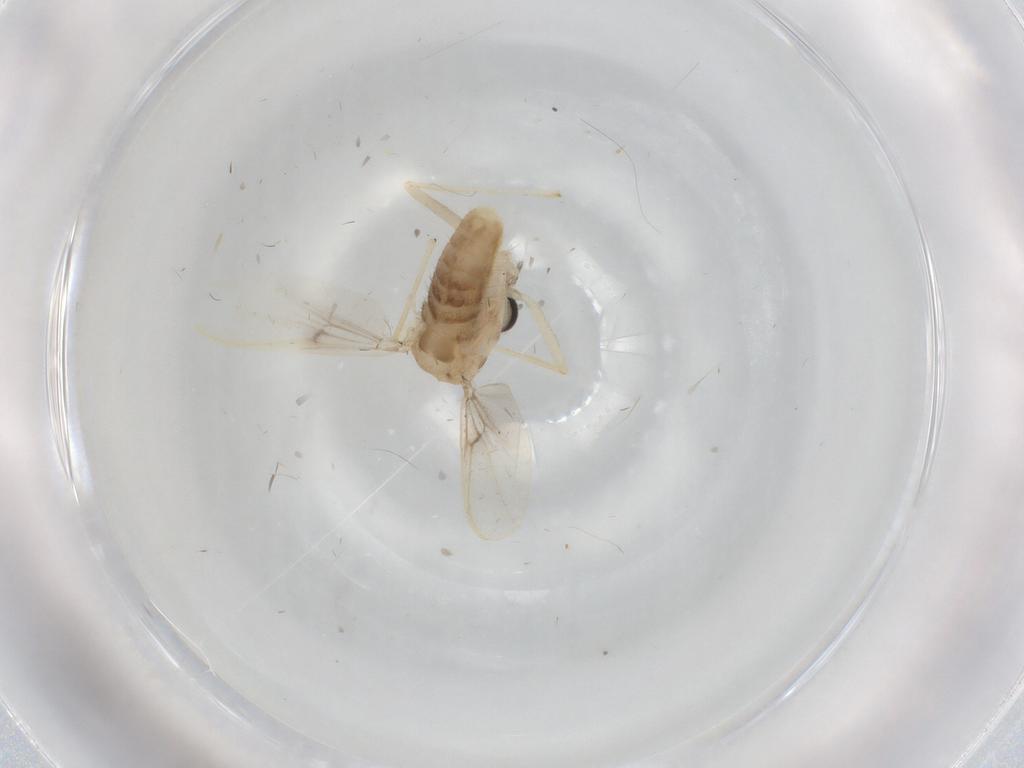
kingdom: Animalia
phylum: Arthropoda
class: Insecta
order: Diptera
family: Chironomidae
